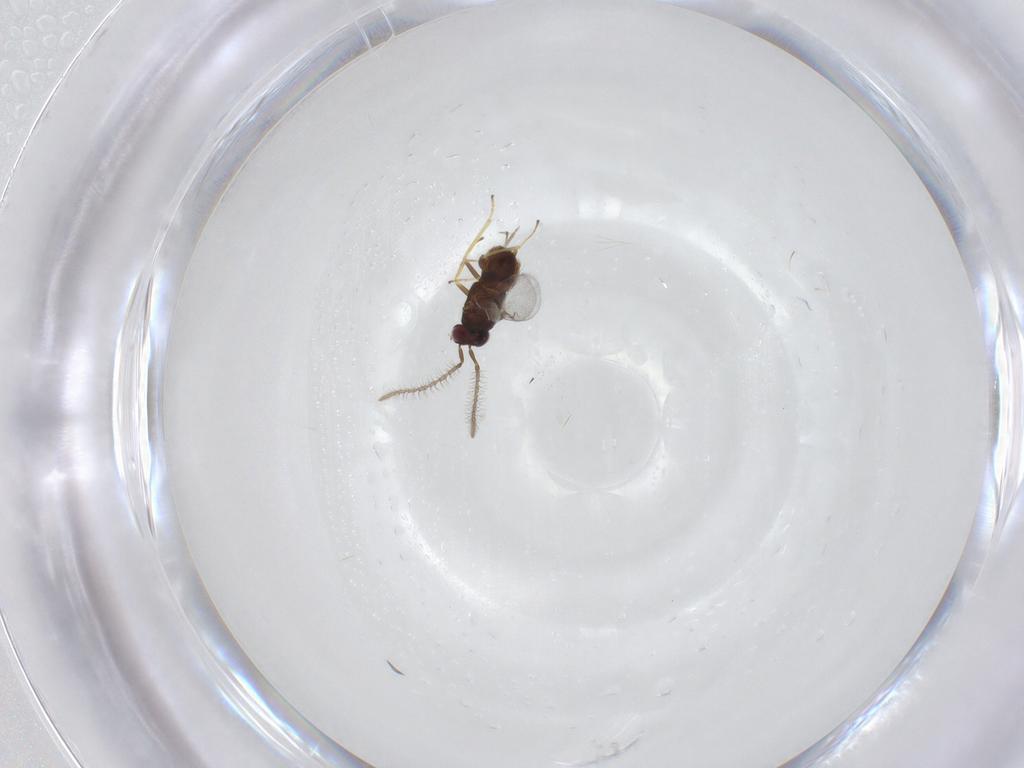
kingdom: Animalia
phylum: Arthropoda
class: Insecta
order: Hymenoptera
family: Encyrtidae
